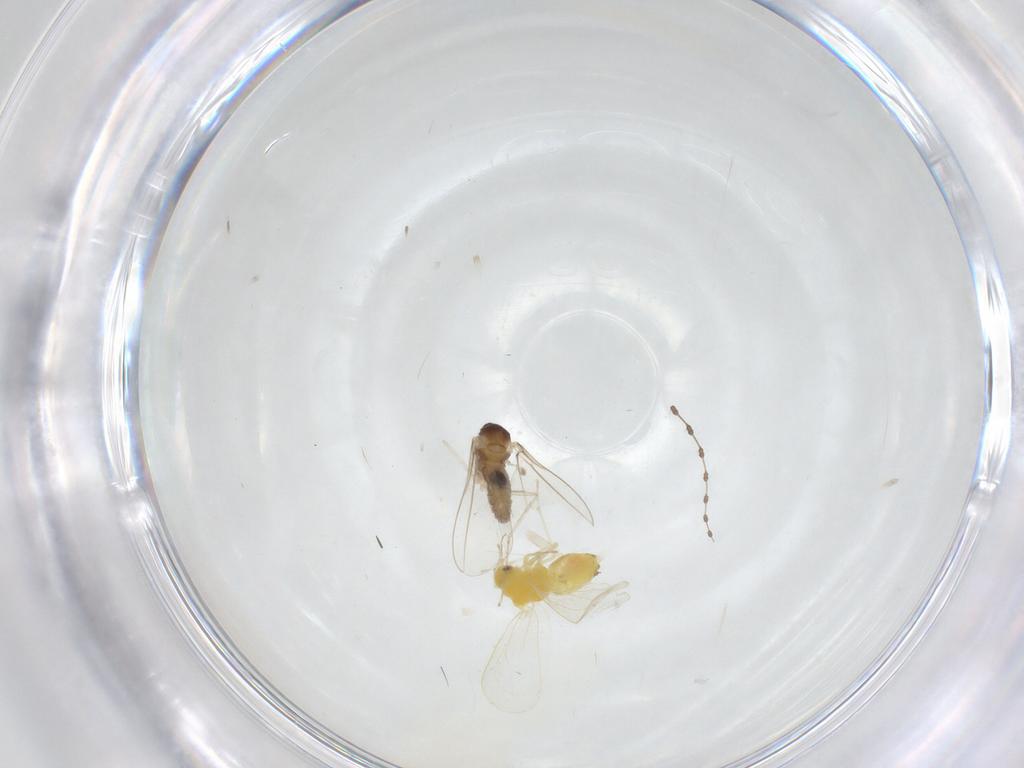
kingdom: Animalia
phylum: Arthropoda
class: Insecta
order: Diptera
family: Cecidomyiidae
